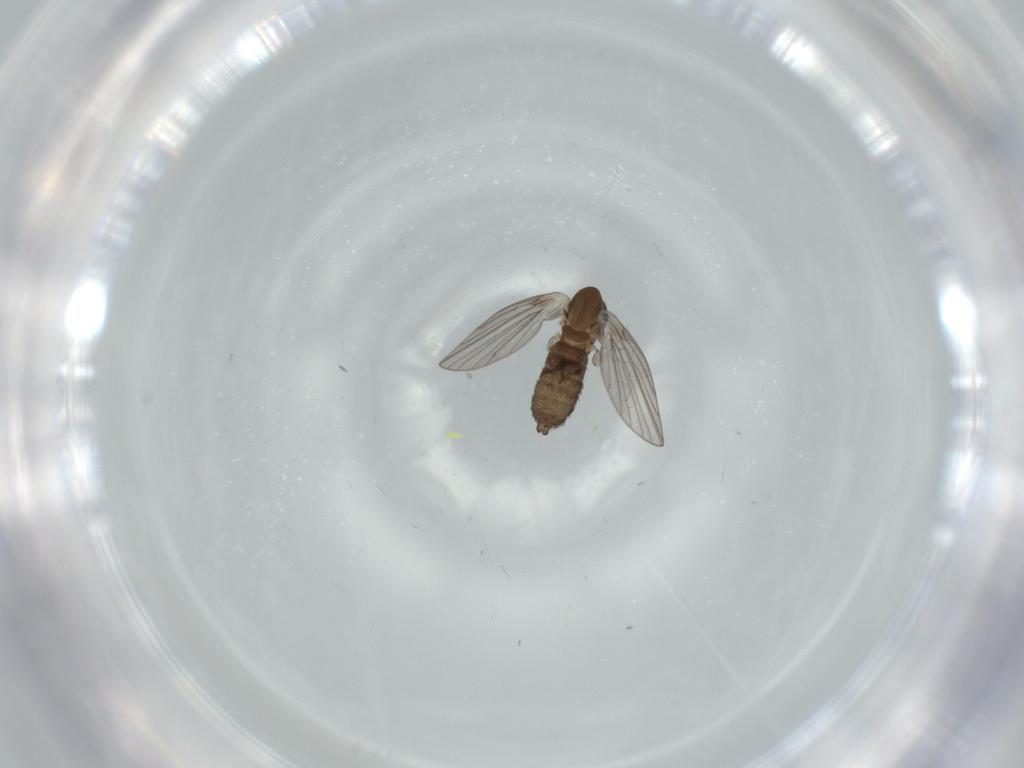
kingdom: Animalia
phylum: Arthropoda
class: Insecta
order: Diptera
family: Psychodidae
